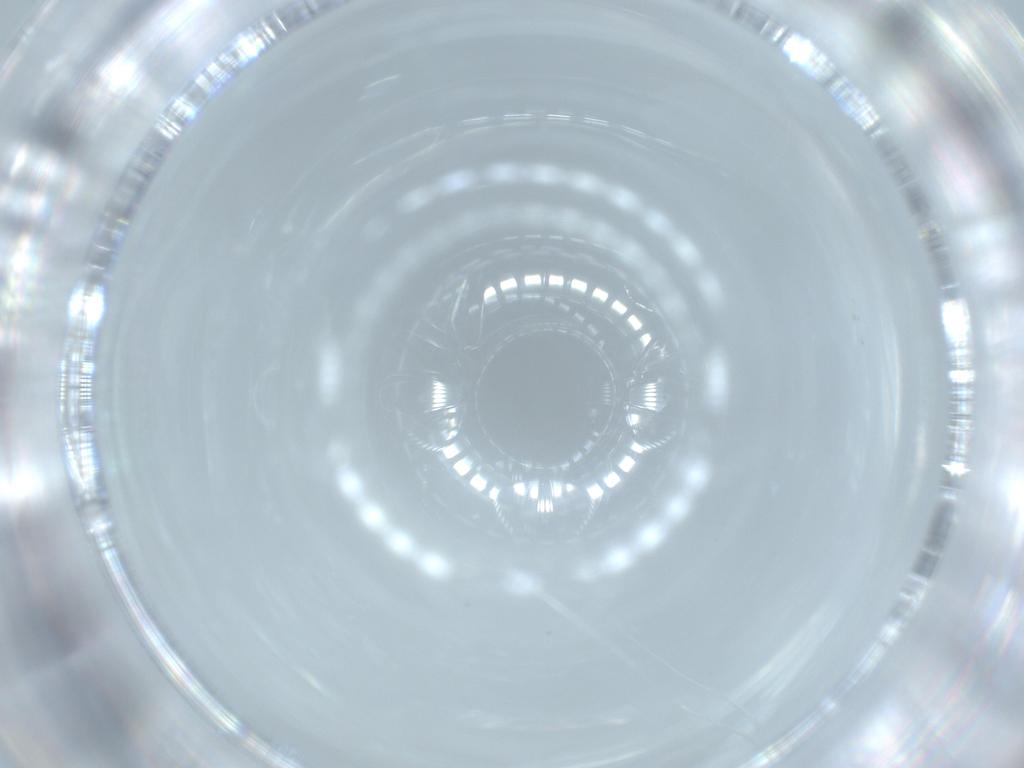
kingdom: Animalia
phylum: Arthropoda
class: Insecta
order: Hemiptera
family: Flatidae
